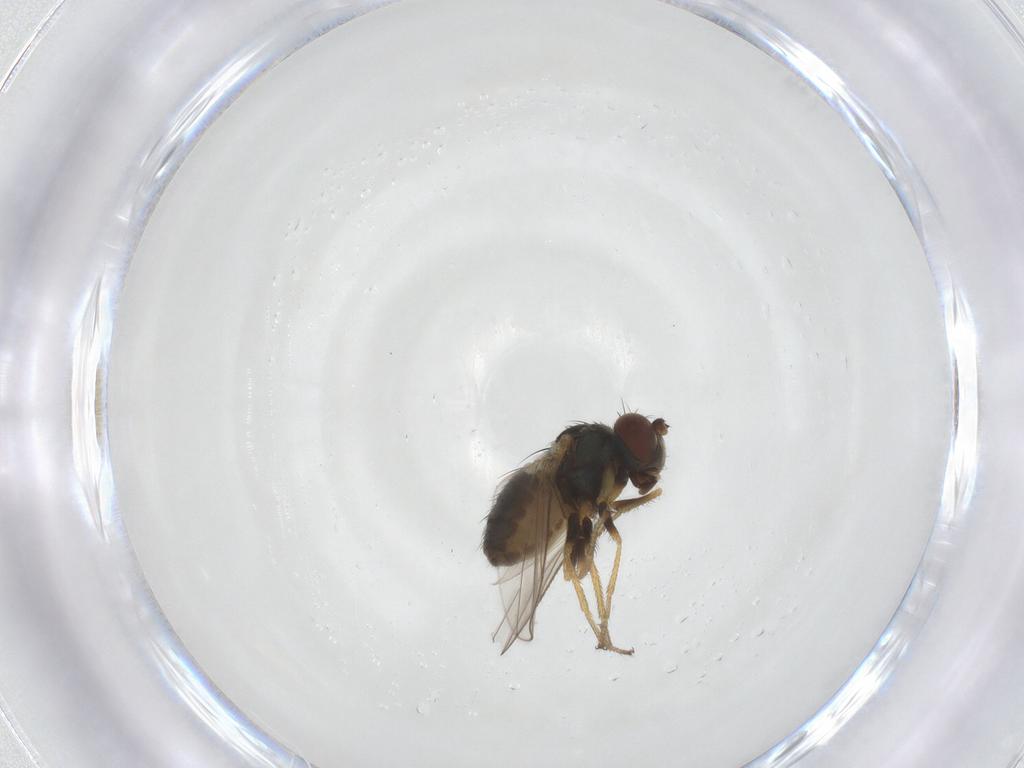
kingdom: Animalia
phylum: Arthropoda
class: Insecta
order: Diptera
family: Ephydridae
